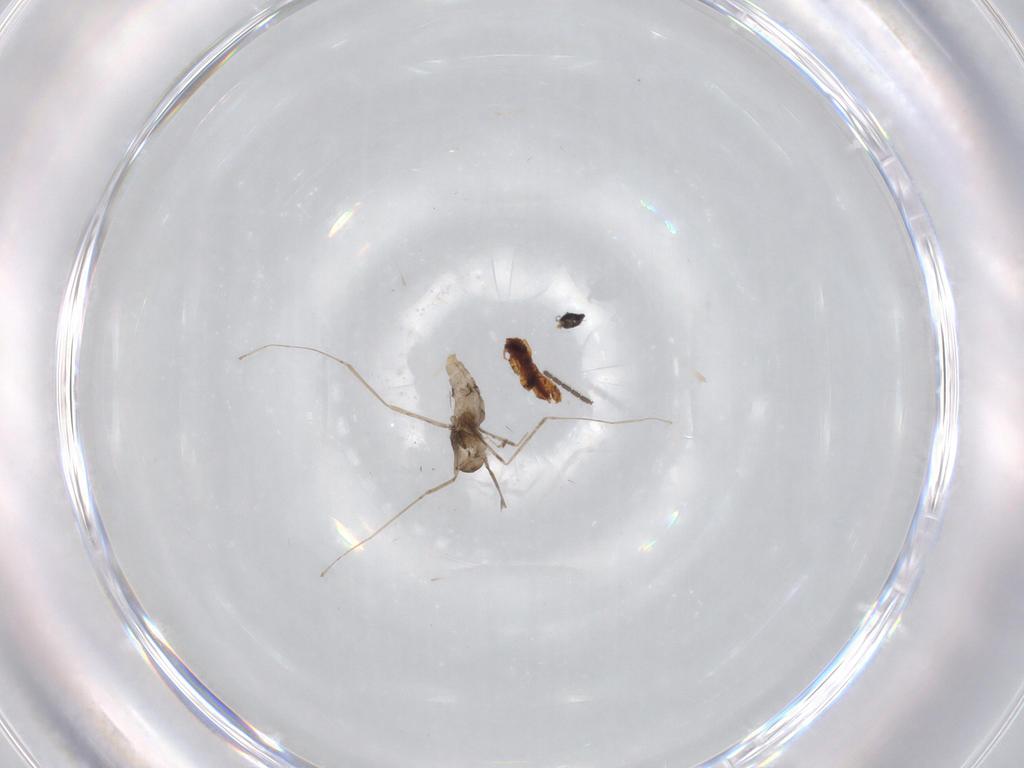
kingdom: Animalia
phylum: Arthropoda
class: Insecta
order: Diptera
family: Cecidomyiidae
